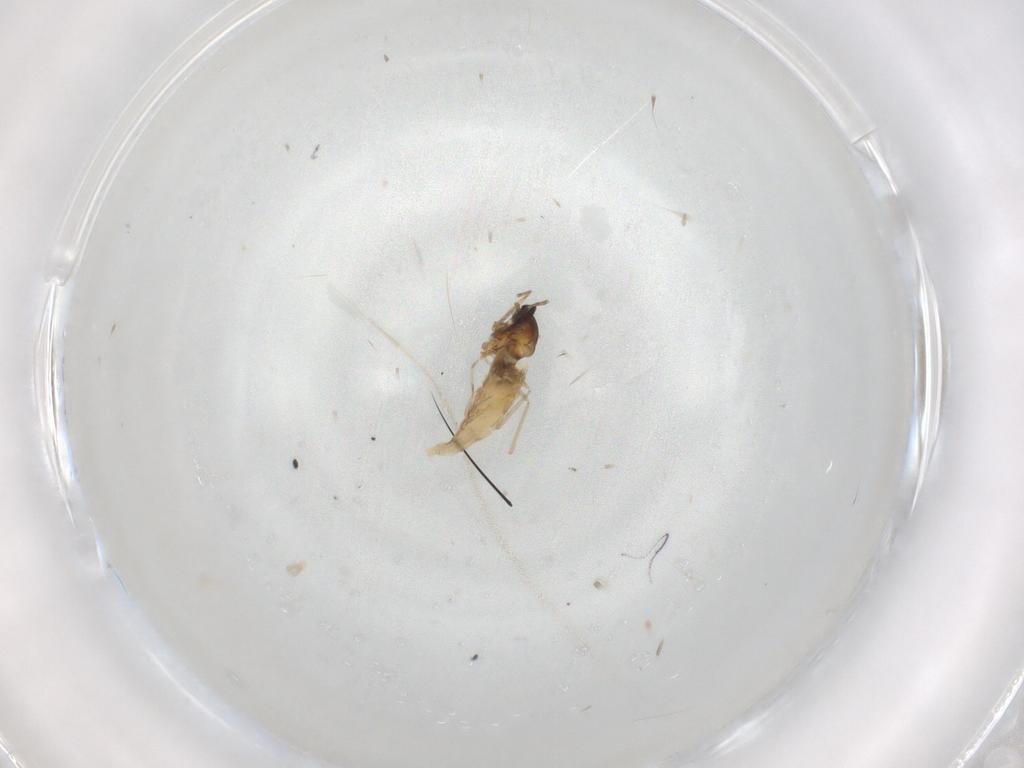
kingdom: Animalia
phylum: Arthropoda
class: Insecta
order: Diptera
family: Cecidomyiidae
